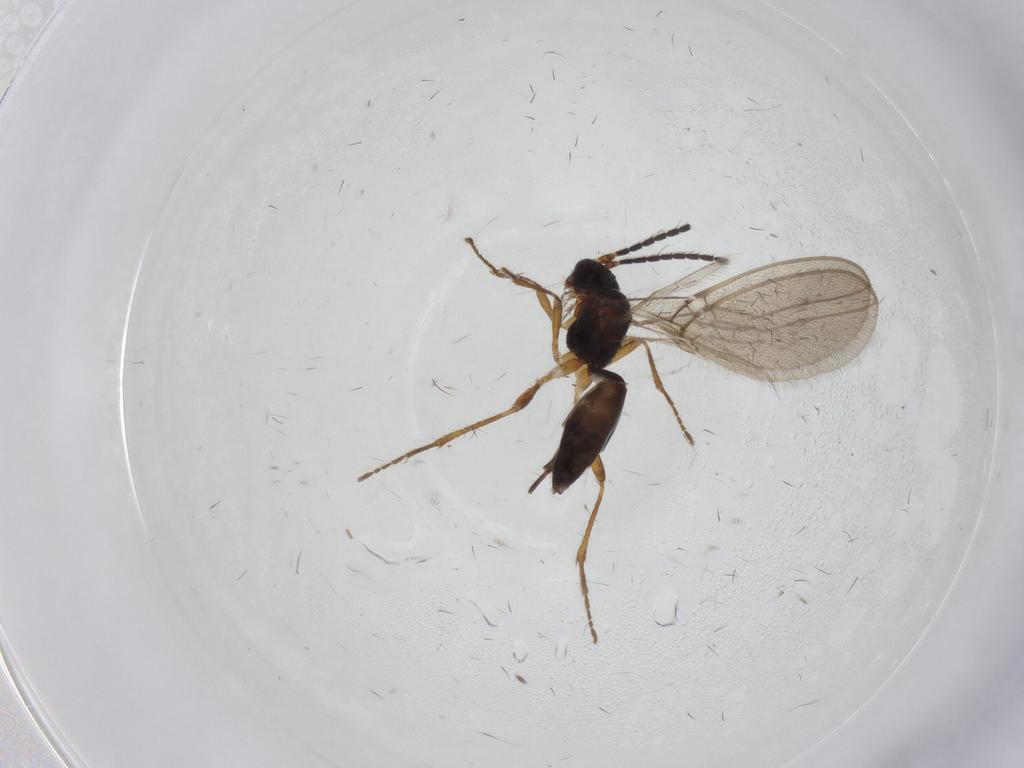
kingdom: Animalia
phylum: Arthropoda
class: Insecta
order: Hymenoptera
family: Braconidae
